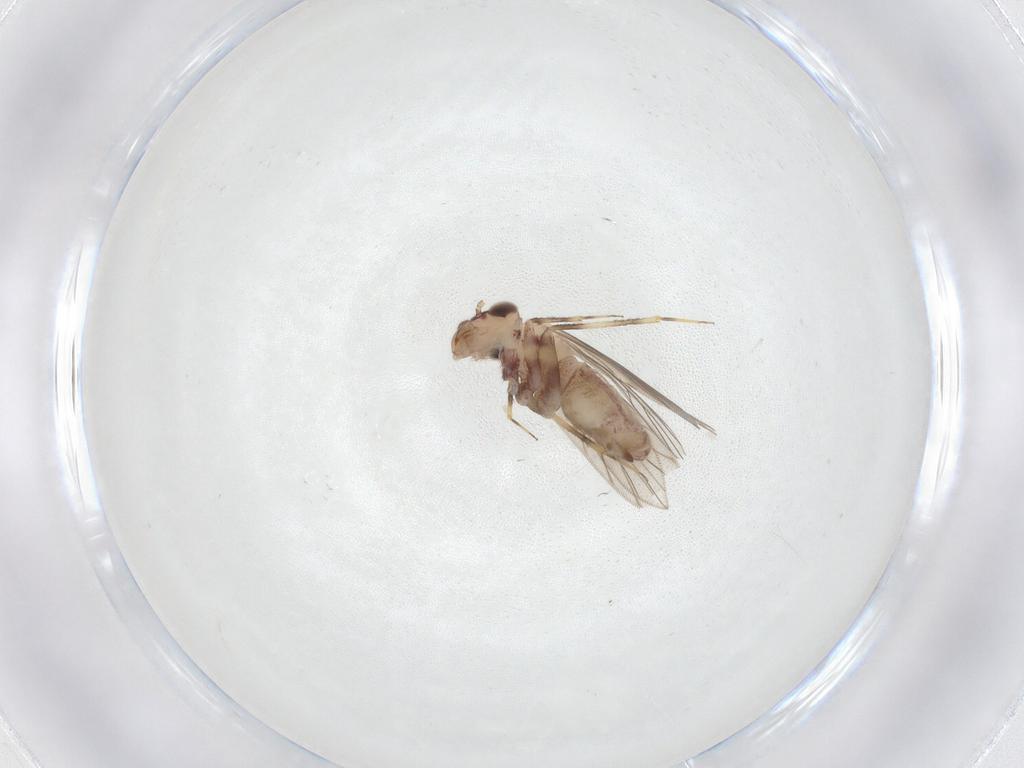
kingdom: Animalia
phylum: Arthropoda
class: Insecta
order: Psocodea
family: Lepidopsocidae
